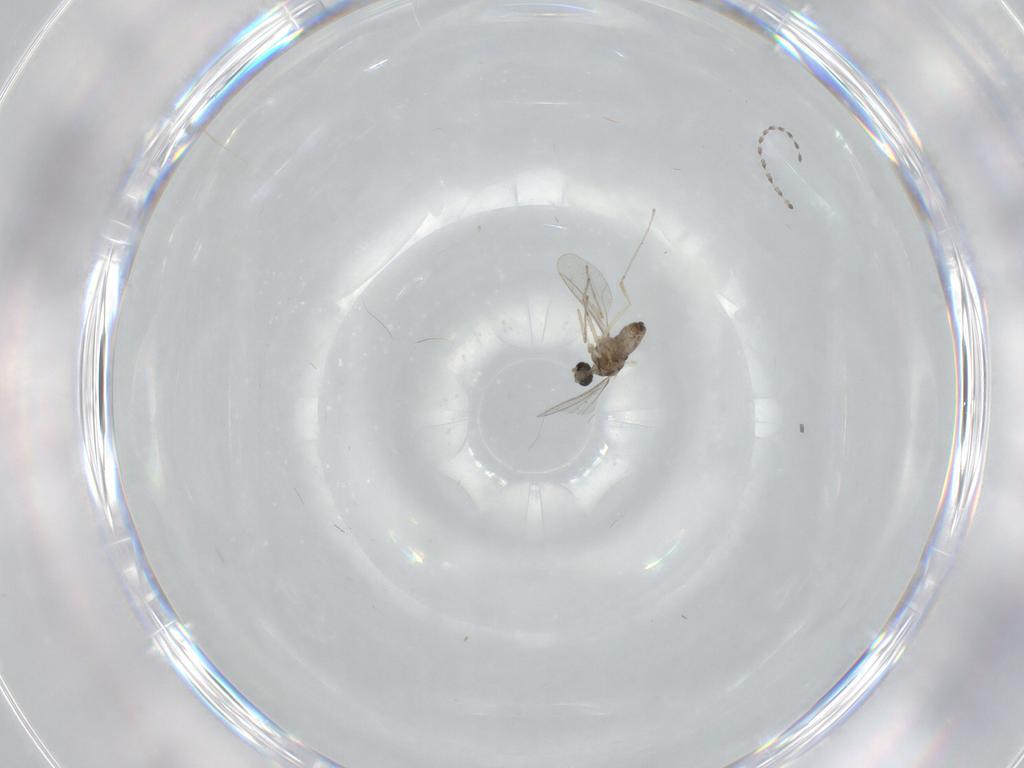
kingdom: Animalia
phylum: Arthropoda
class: Insecta
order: Diptera
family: Cecidomyiidae
